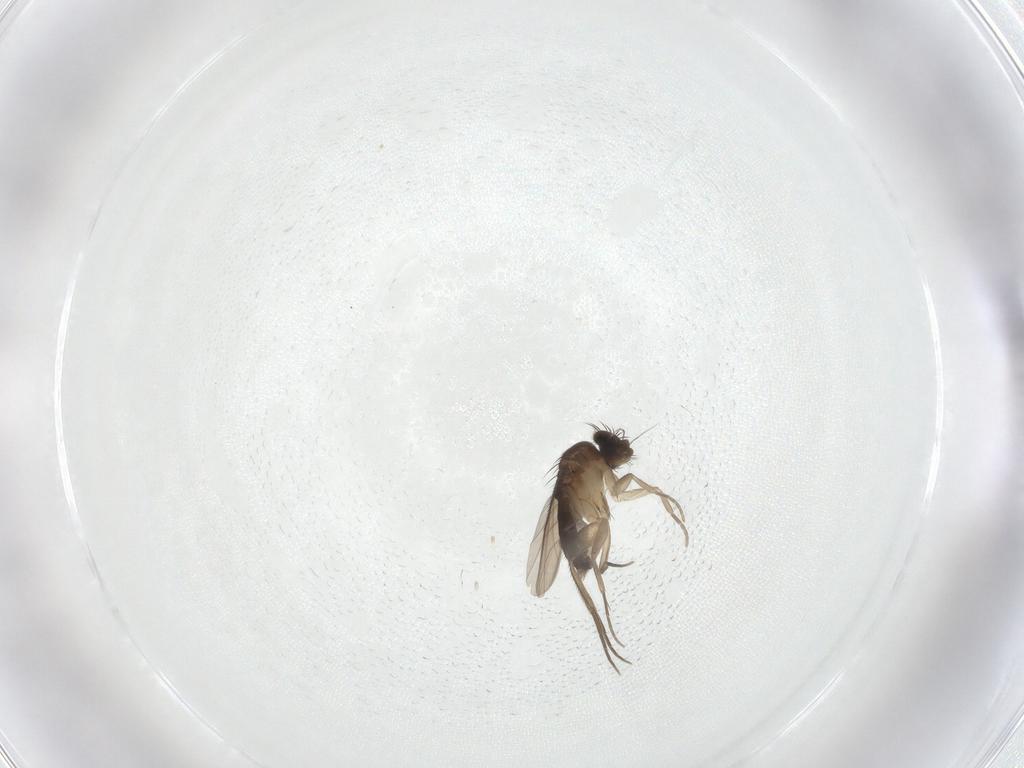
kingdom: Animalia
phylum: Arthropoda
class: Insecta
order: Diptera
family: Phoridae
